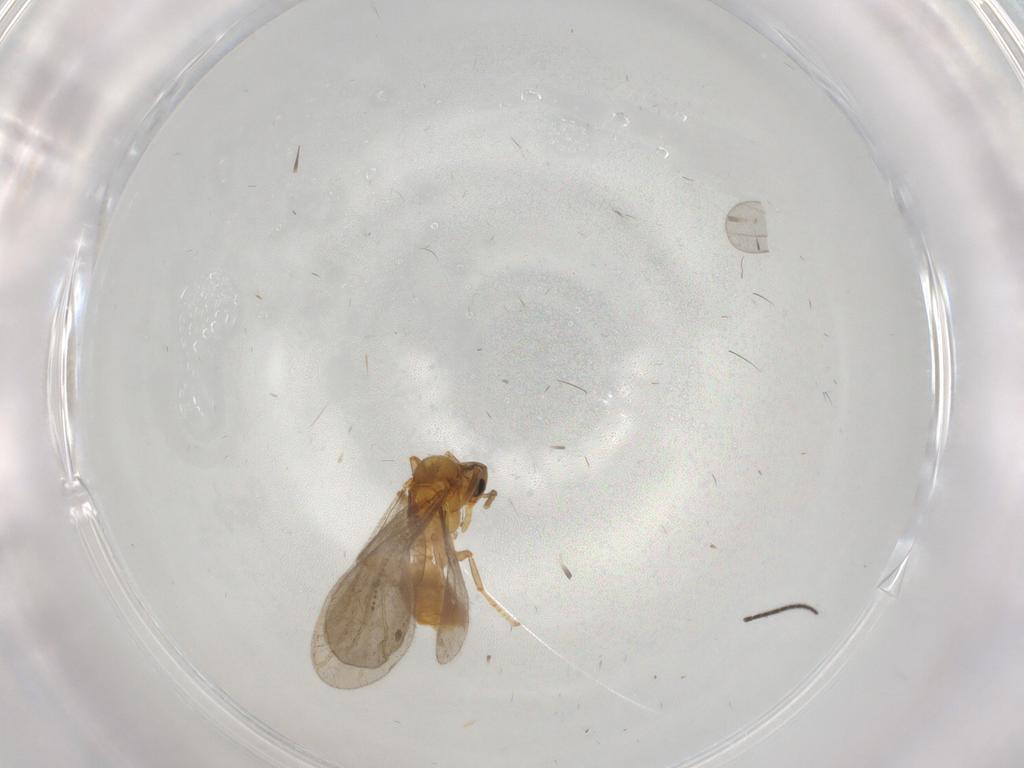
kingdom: Animalia
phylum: Arthropoda
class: Insecta
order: Hymenoptera
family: Formicidae
